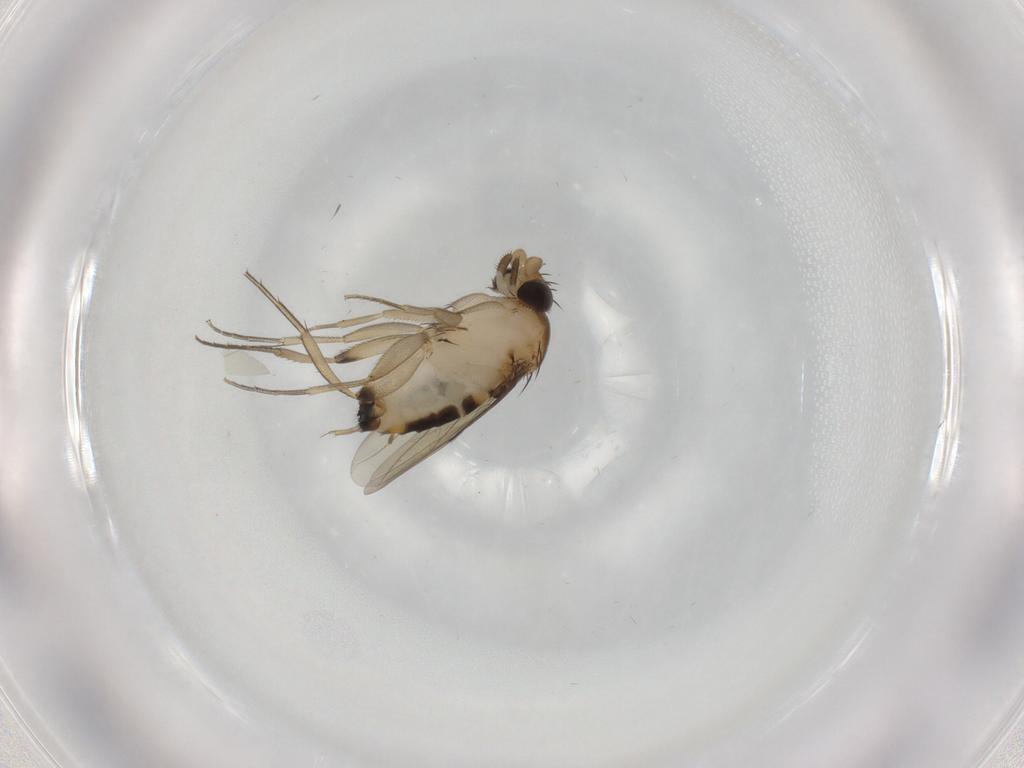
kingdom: Animalia
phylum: Arthropoda
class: Insecta
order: Diptera
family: Phoridae
